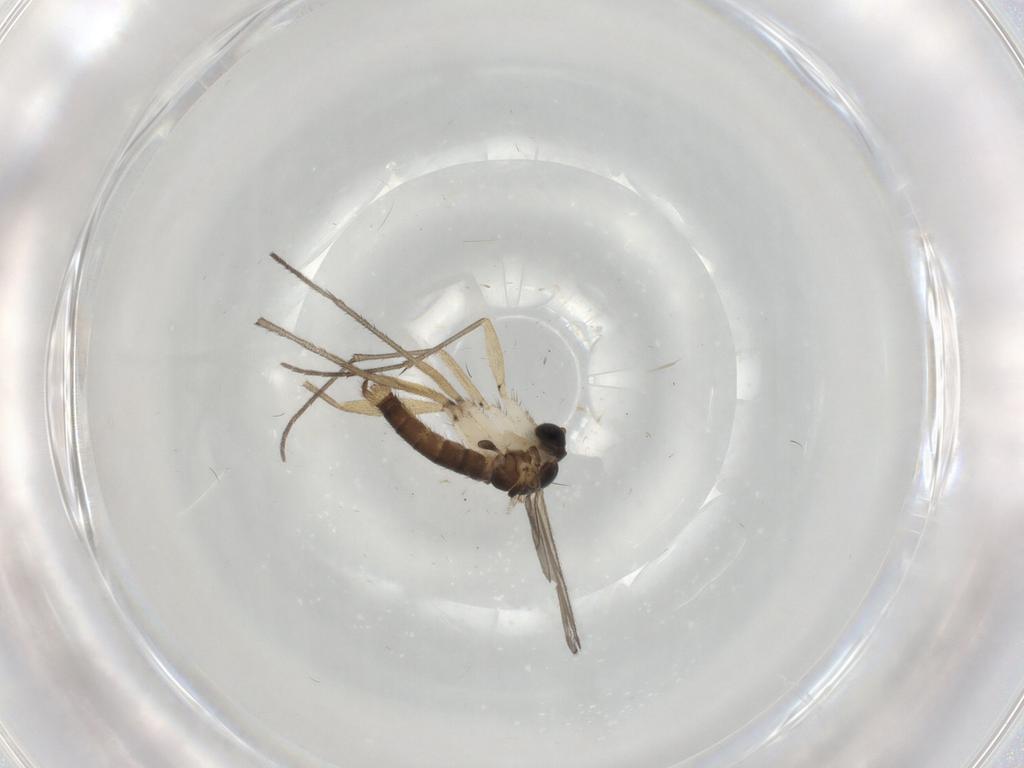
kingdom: Animalia
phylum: Arthropoda
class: Insecta
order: Diptera
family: Sciaridae
